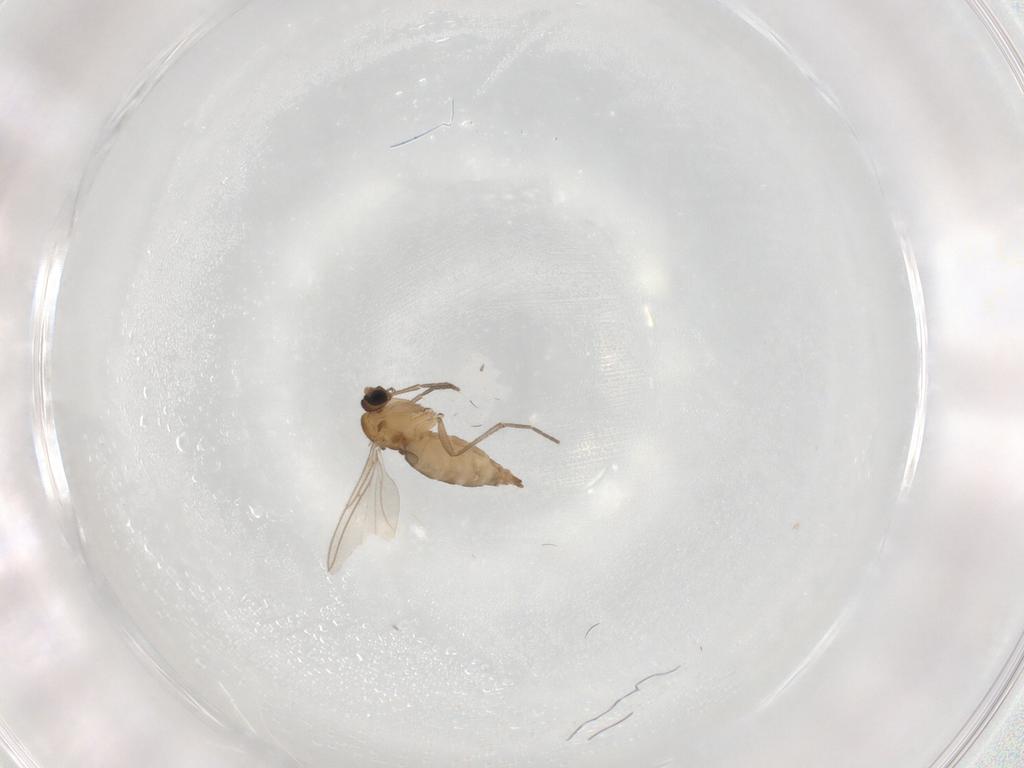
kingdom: Animalia
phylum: Arthropoda
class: Insecta
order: Diptera
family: Sciaridae
